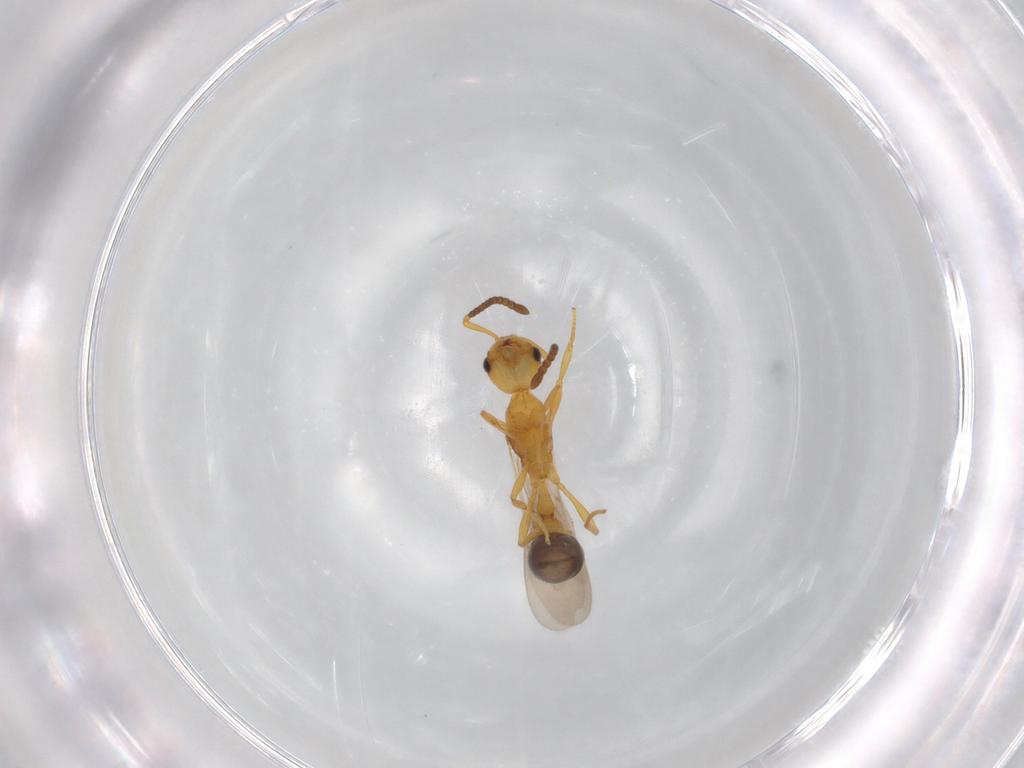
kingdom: Animalia
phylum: Arthropoda
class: Insecta
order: Hymenoptera
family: Formicidae
